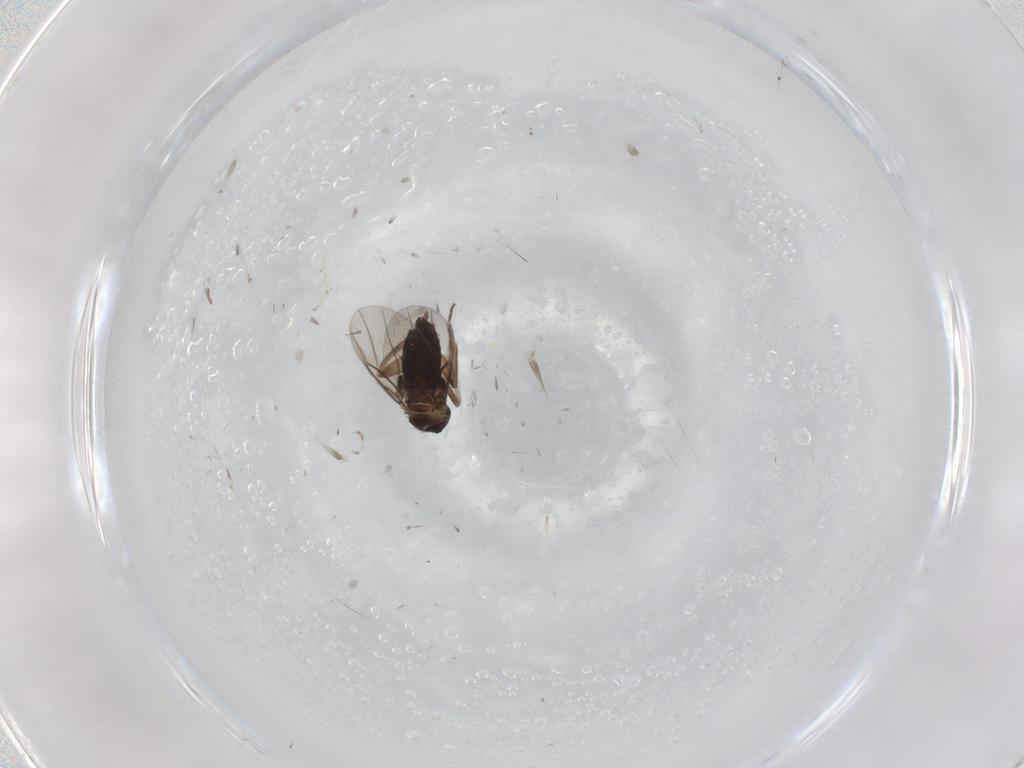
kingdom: Animalia
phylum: Arthropoda
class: Insecta
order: Diptera
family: Phoridae
